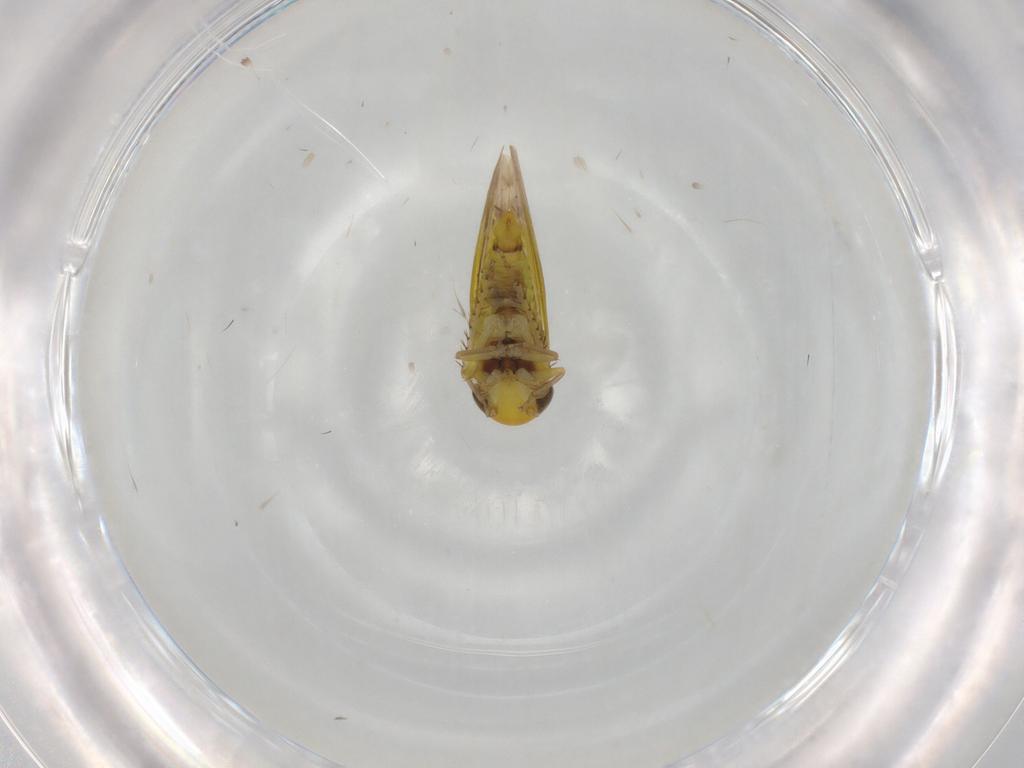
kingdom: Animalia
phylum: Arthropoda
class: Insecta
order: Hemiptera
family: Cicadellidae
